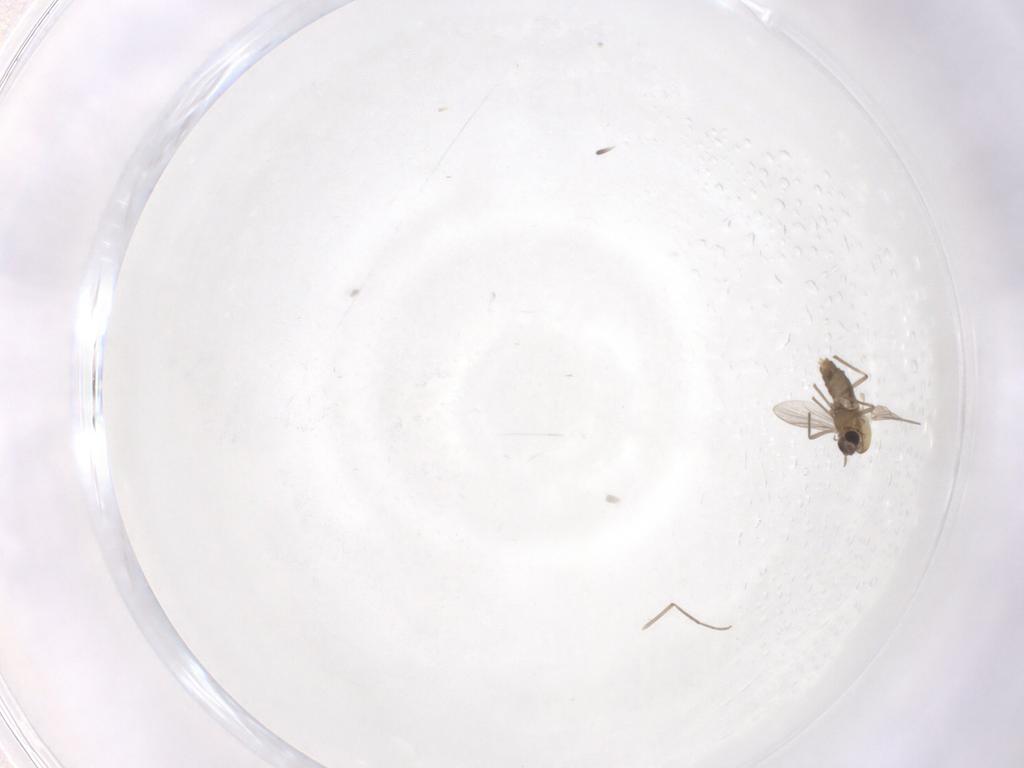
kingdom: Animalia
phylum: Arthropoda
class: Insecta
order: Diptera
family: Chironomidae
